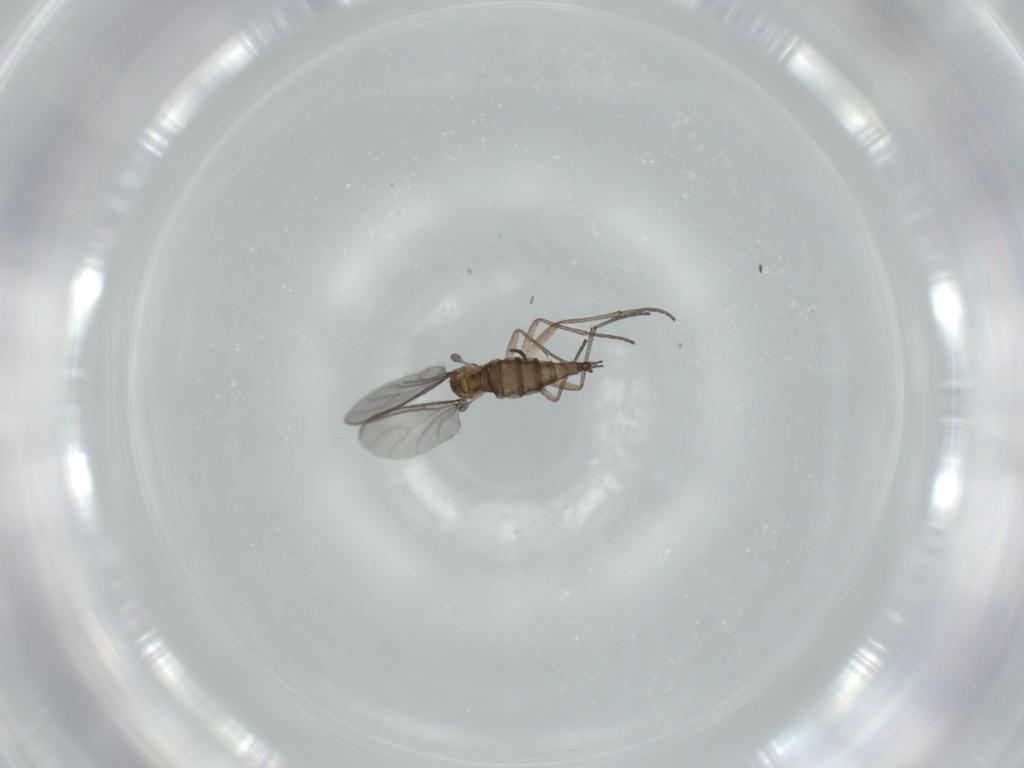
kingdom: Animalia
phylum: Arthropoda
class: Insecta
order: Diptera
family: Sciaridae
